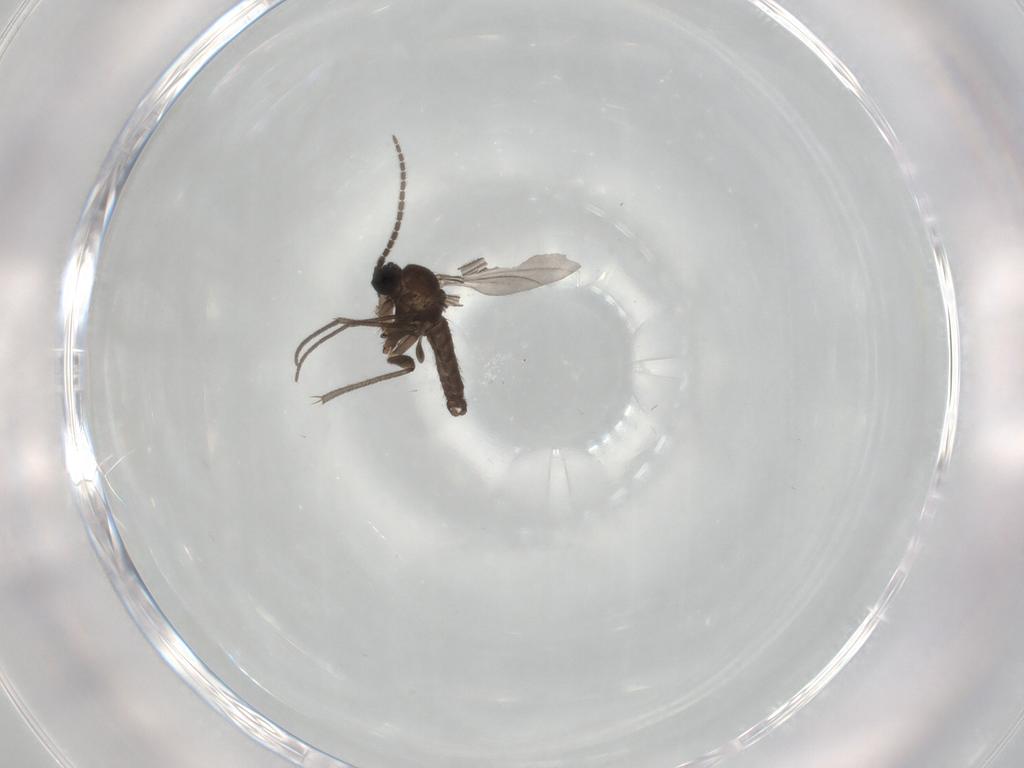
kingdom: Animalia
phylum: Arthropoda
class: Insecta
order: Diptera
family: Sciaridae
